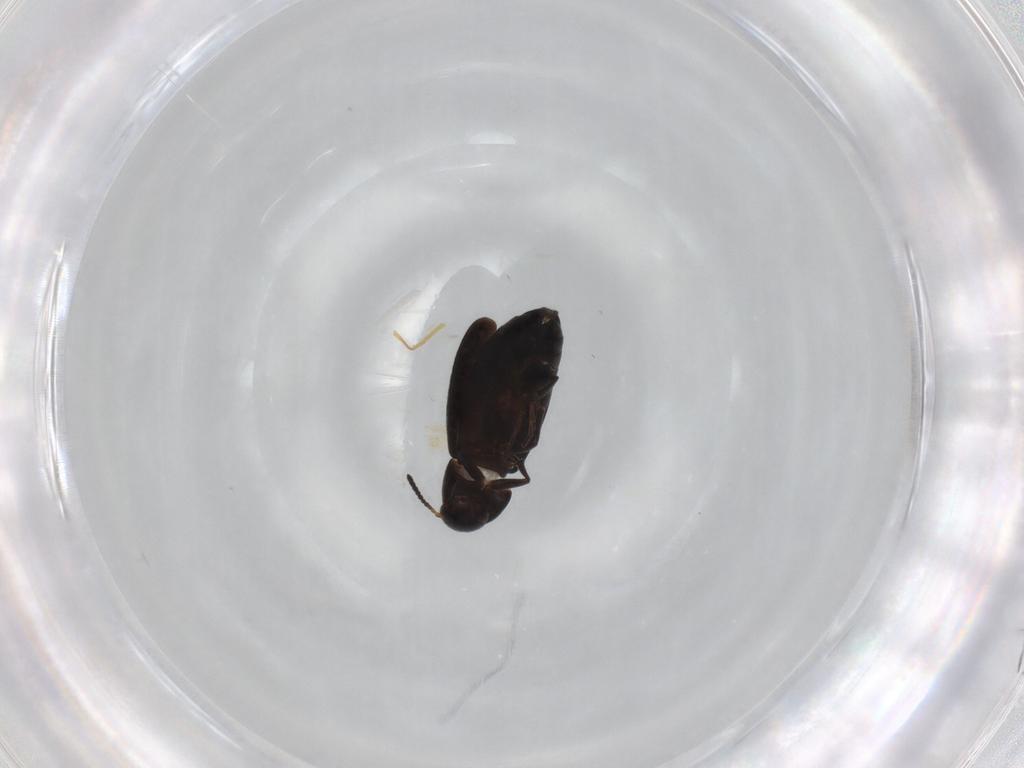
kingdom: Animalia
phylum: Arthropoda
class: Insecta
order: Coleoptera
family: Scraptiidae
